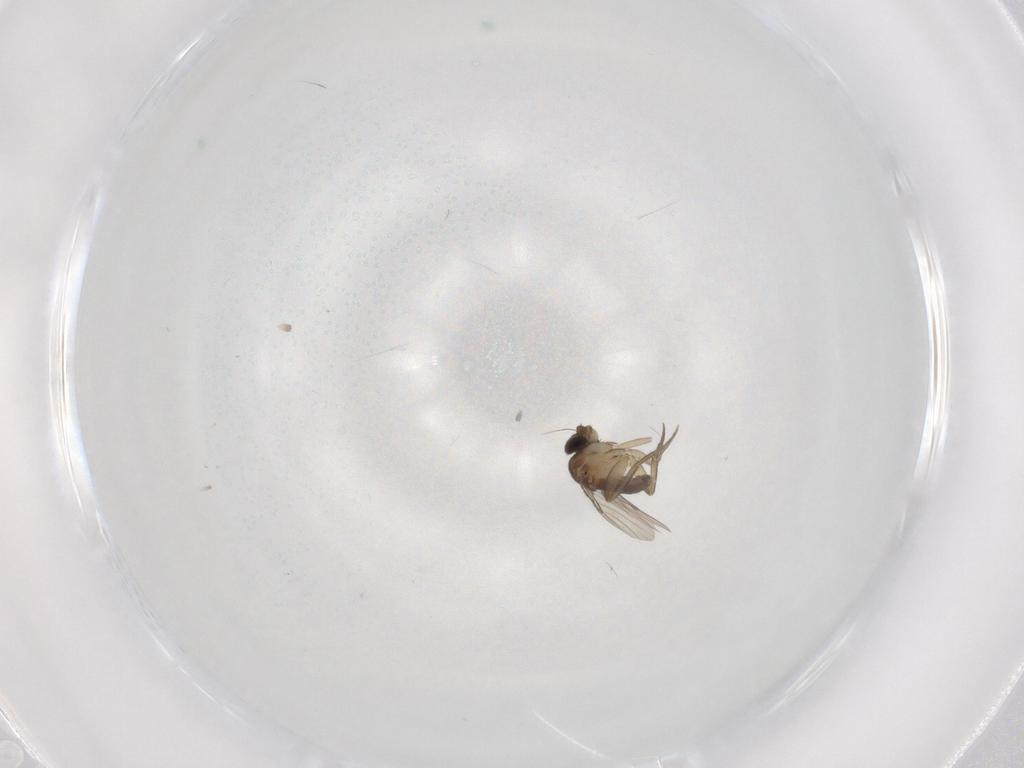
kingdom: Animalia
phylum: Arthropoda
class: Insecta
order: Diptera
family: Phoridae
